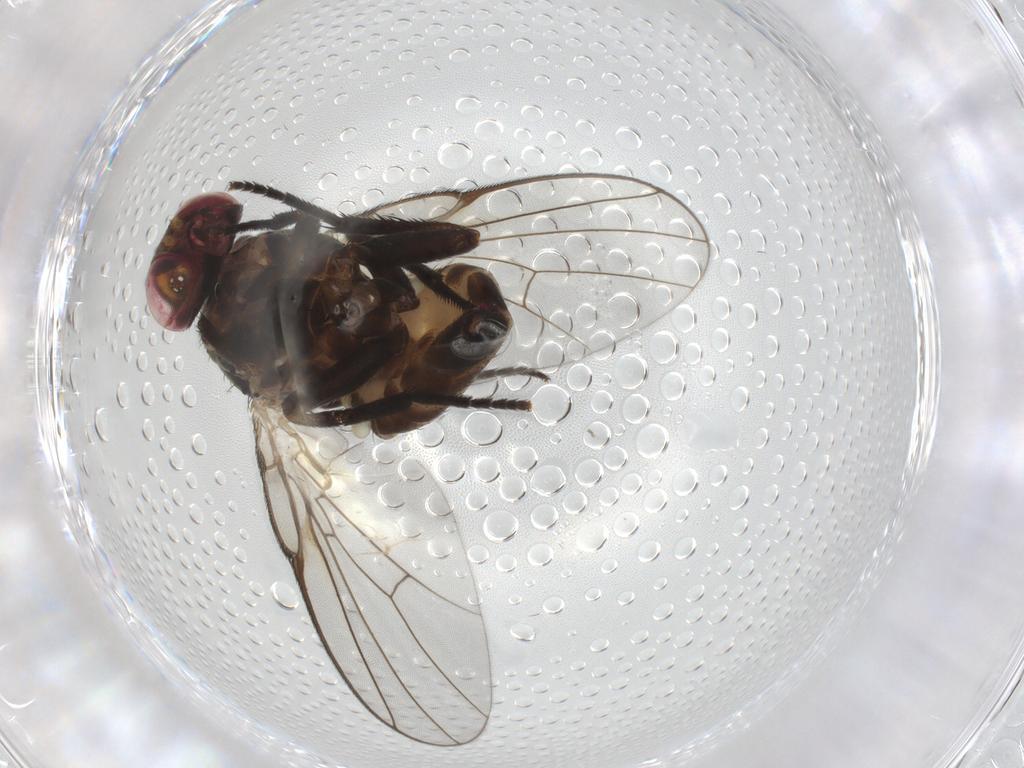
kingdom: Animalia
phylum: Arthropoda
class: Insecta
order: Diptera
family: Agromyzidae
